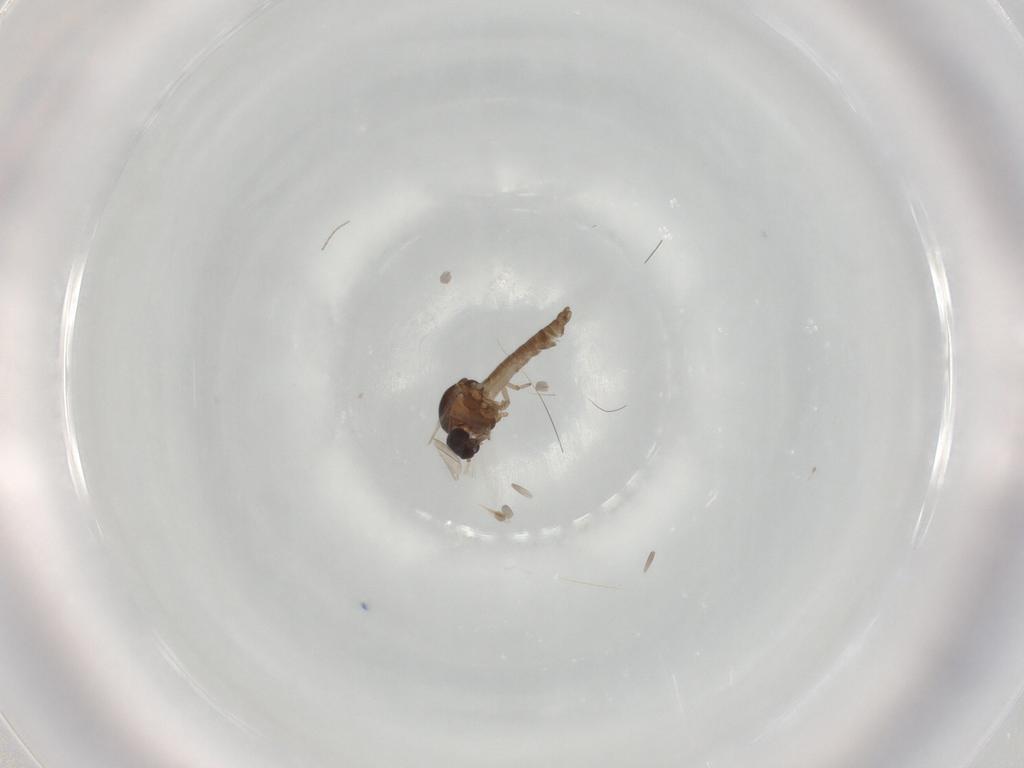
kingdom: Animalia
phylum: Arthropoda
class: Insecta
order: Diptera
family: Ceratopogonidae
